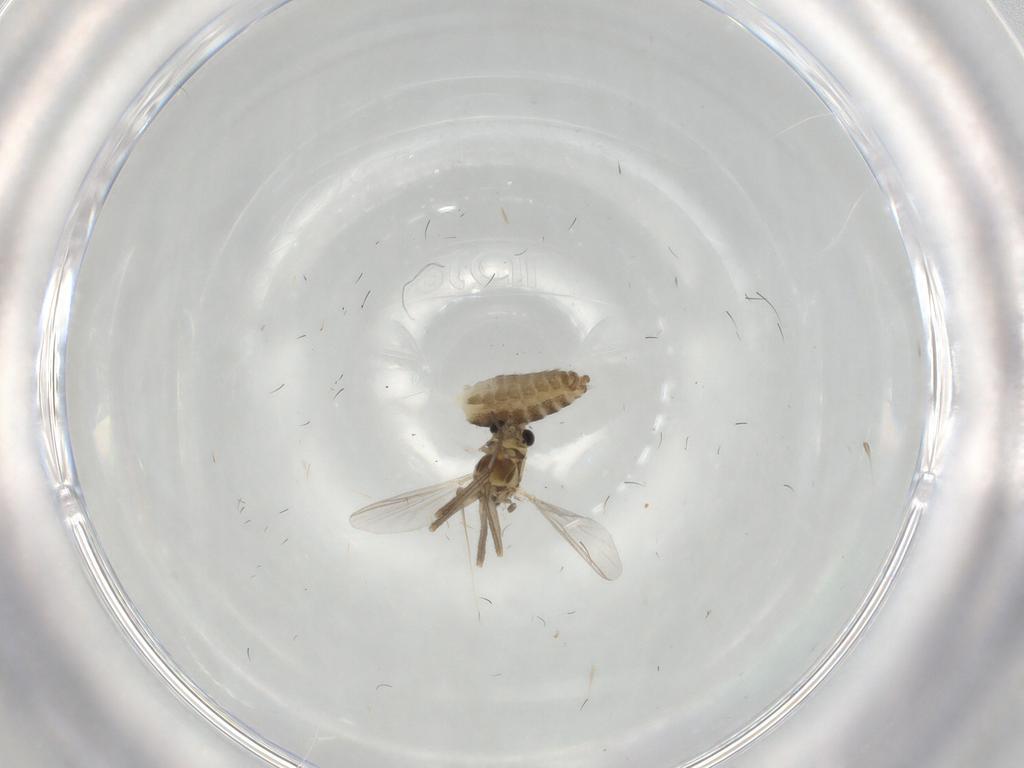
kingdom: Animalia
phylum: Arthropoda
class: Insecta
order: Diptera
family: Chironomidae
